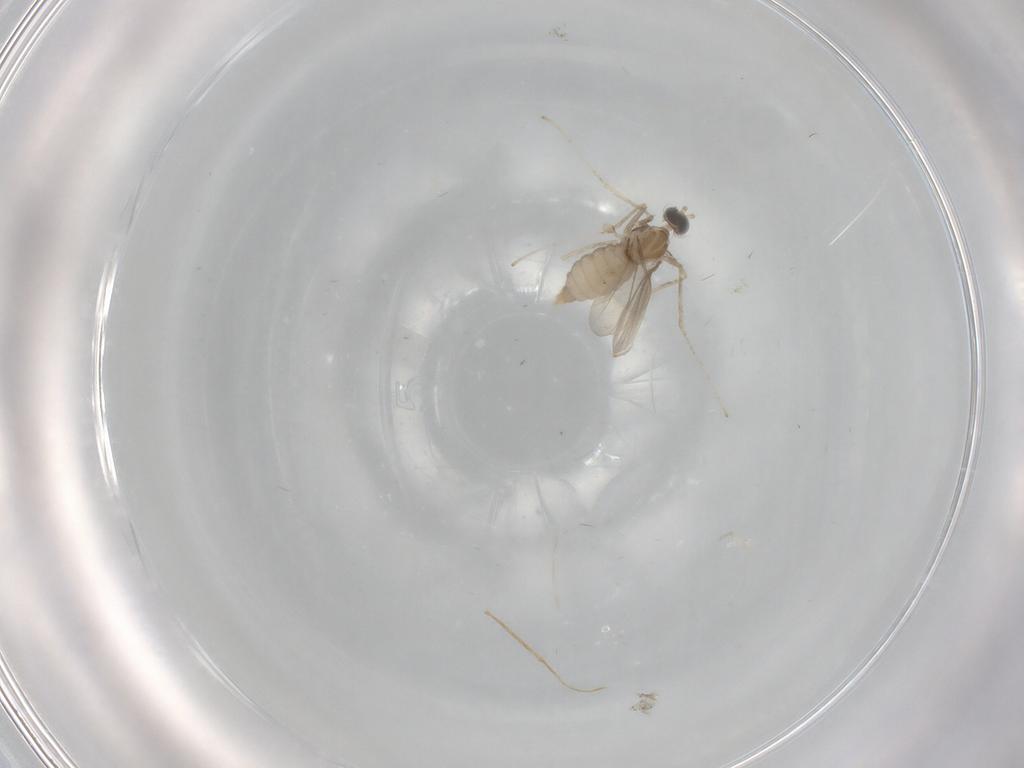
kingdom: Animalia
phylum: Arthropoda
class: Insecta
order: Diptera
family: Cecidomyiidae
